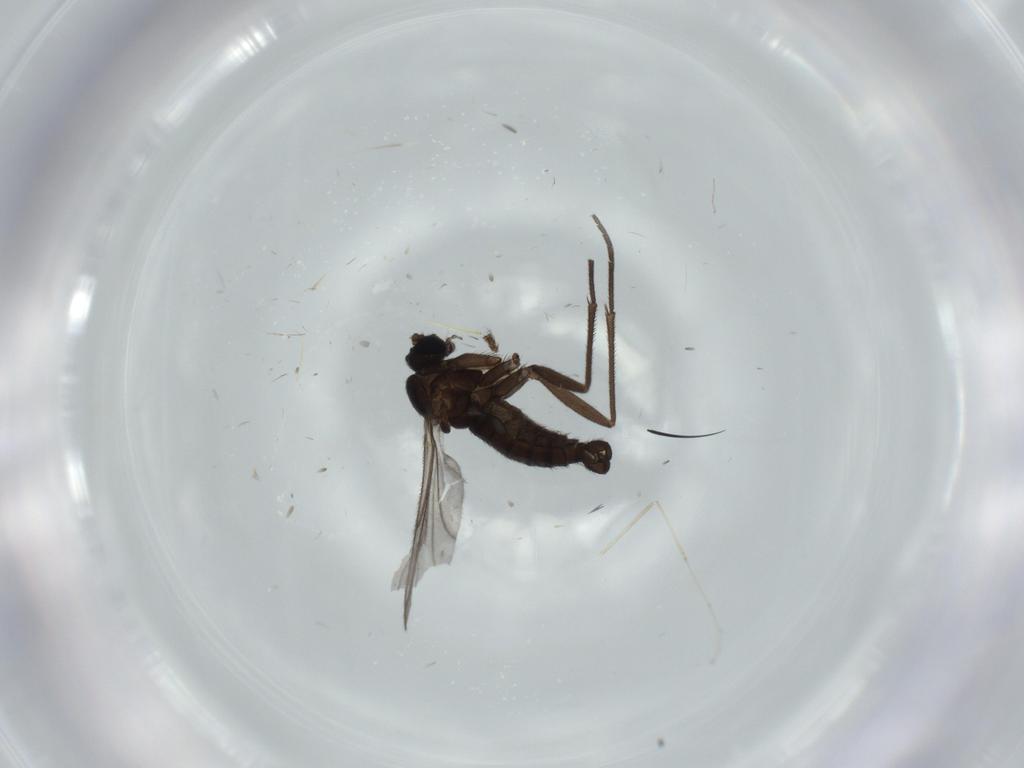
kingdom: Animalia
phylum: Arthropoda
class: Insecta
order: Diptera
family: Sciaridae
